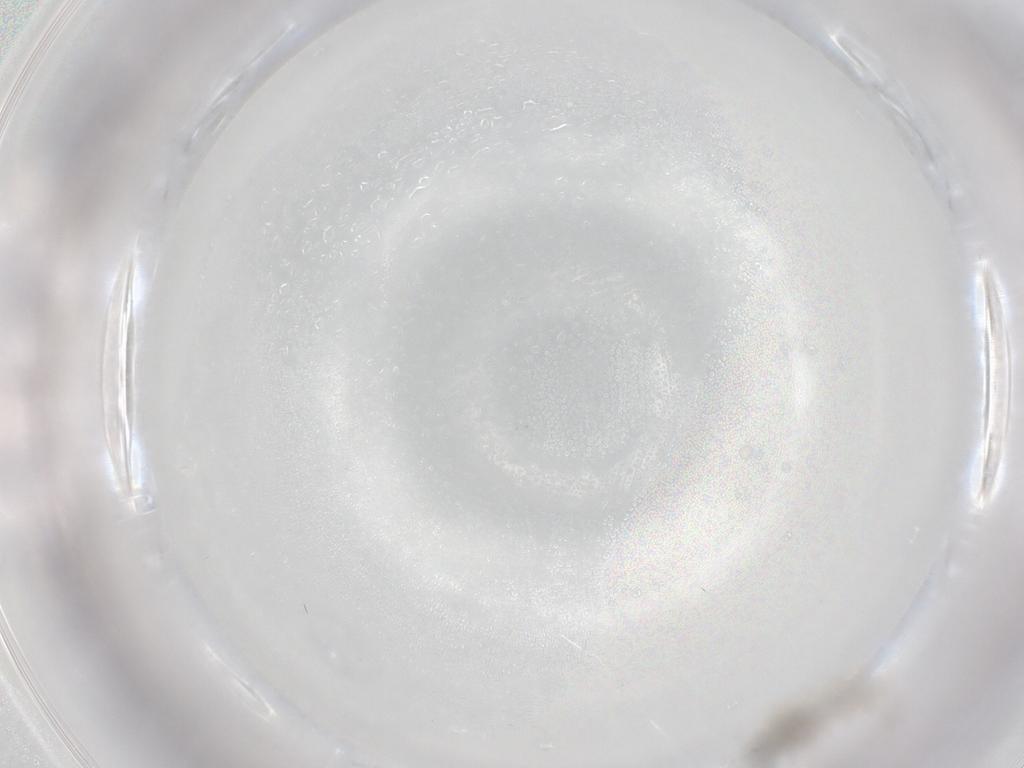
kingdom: Animalia
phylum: Arthropoda
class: Insecta
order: Diptera
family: Cecidomyiidae
